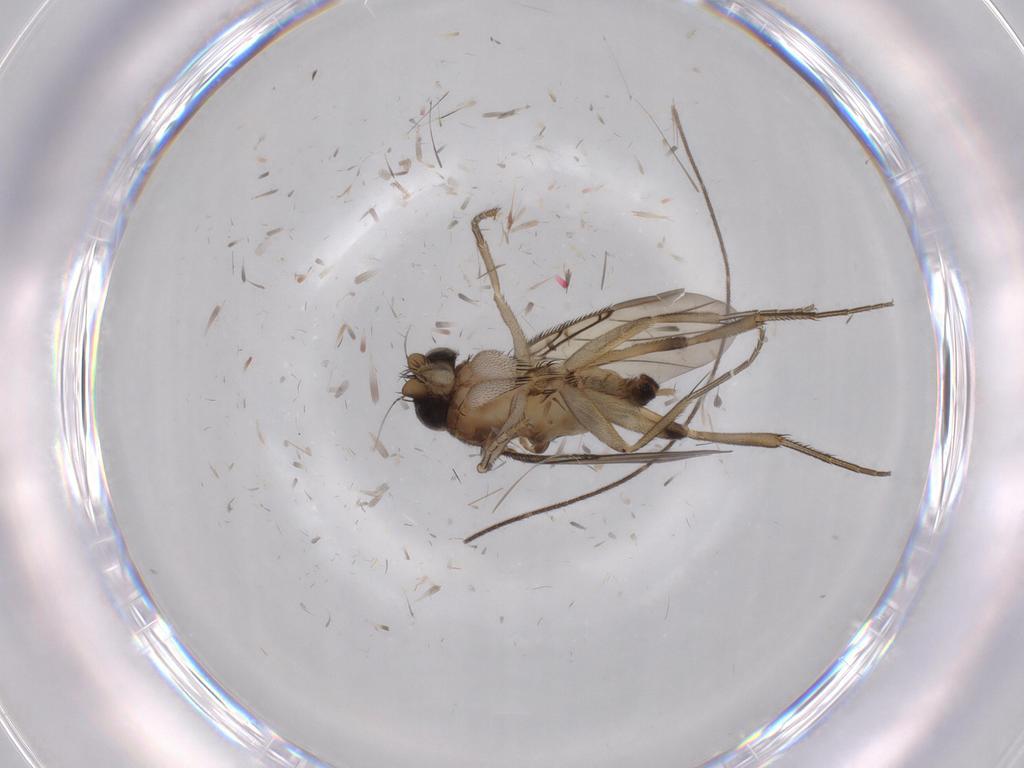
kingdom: Animalia
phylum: Arthropoda
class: Insecta
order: Diptera
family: Phoridae
